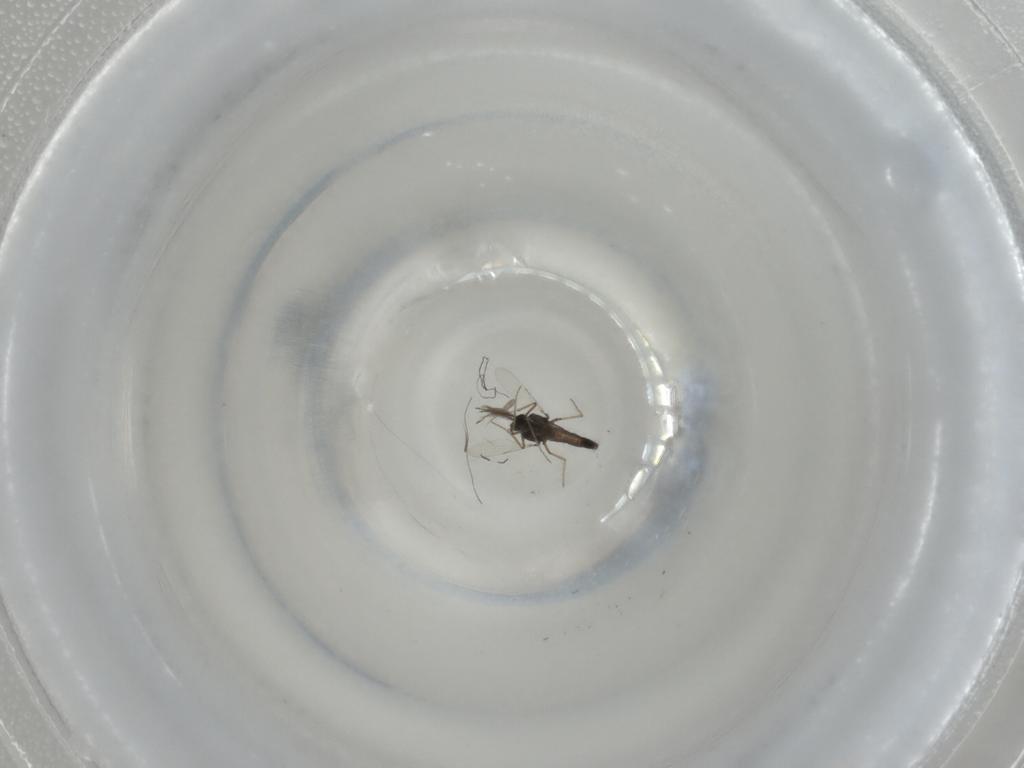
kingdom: Animalia
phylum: Arthropoda
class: Insecta
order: Diptera
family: Ceratopogonidae
